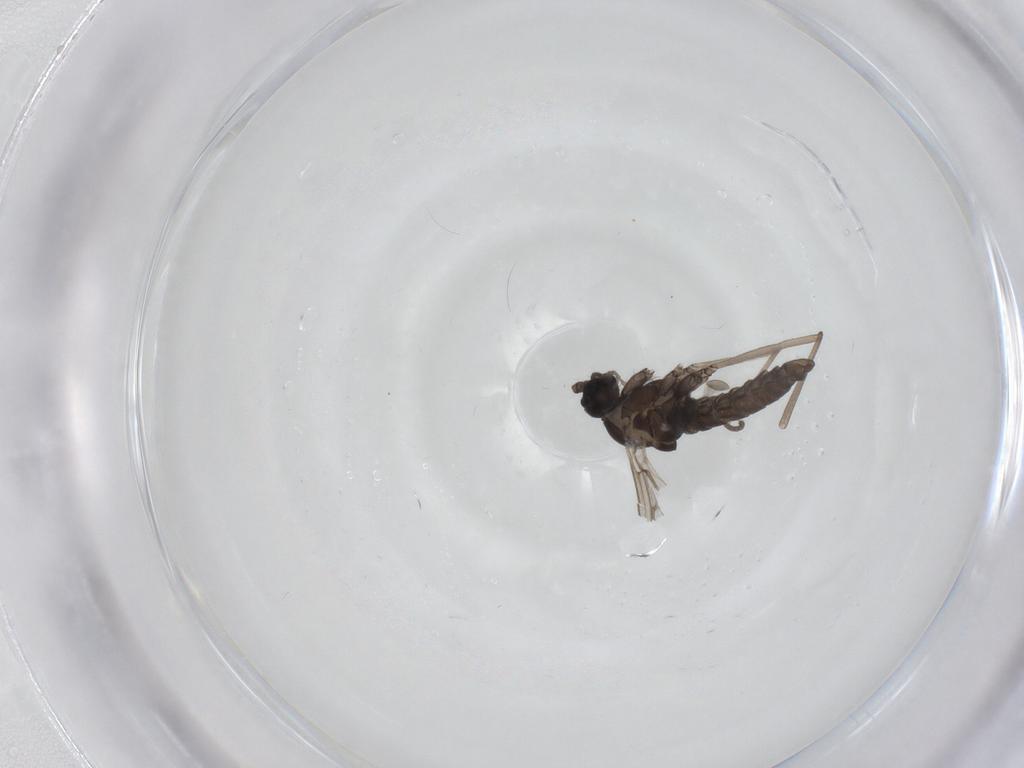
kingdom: Animalia
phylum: Arthropoda
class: Insecta
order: Diptera
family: Cecidomyiidae
